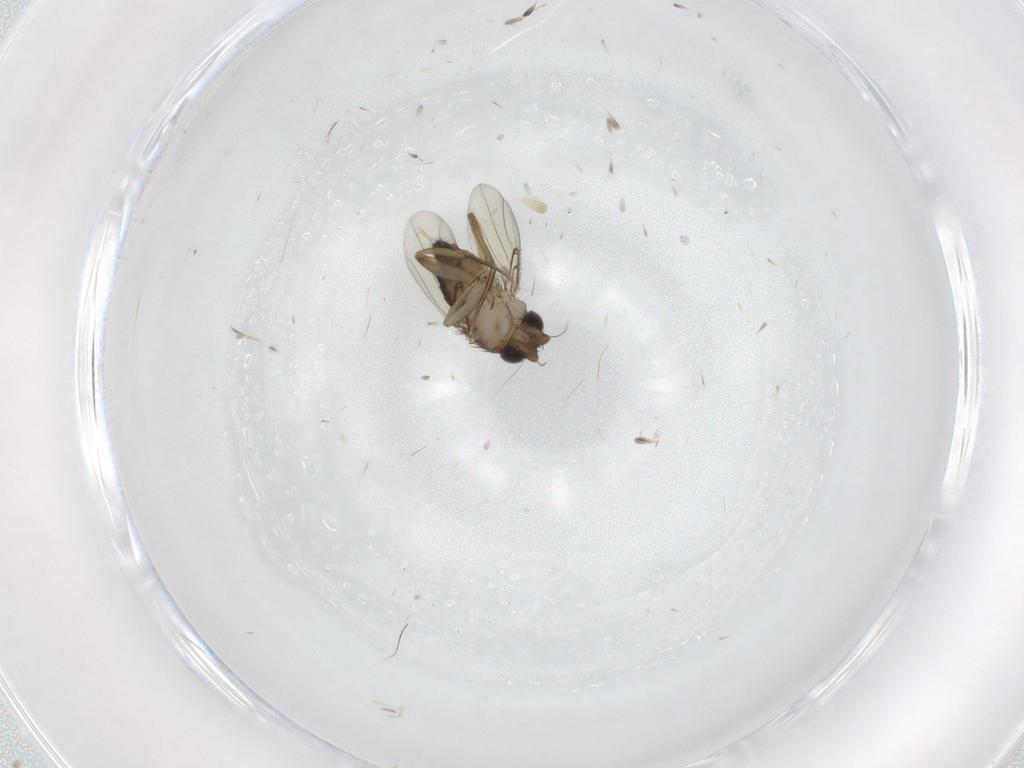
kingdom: Animalia
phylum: Arthropoda
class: Insecta
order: Diptera
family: Phoridae
